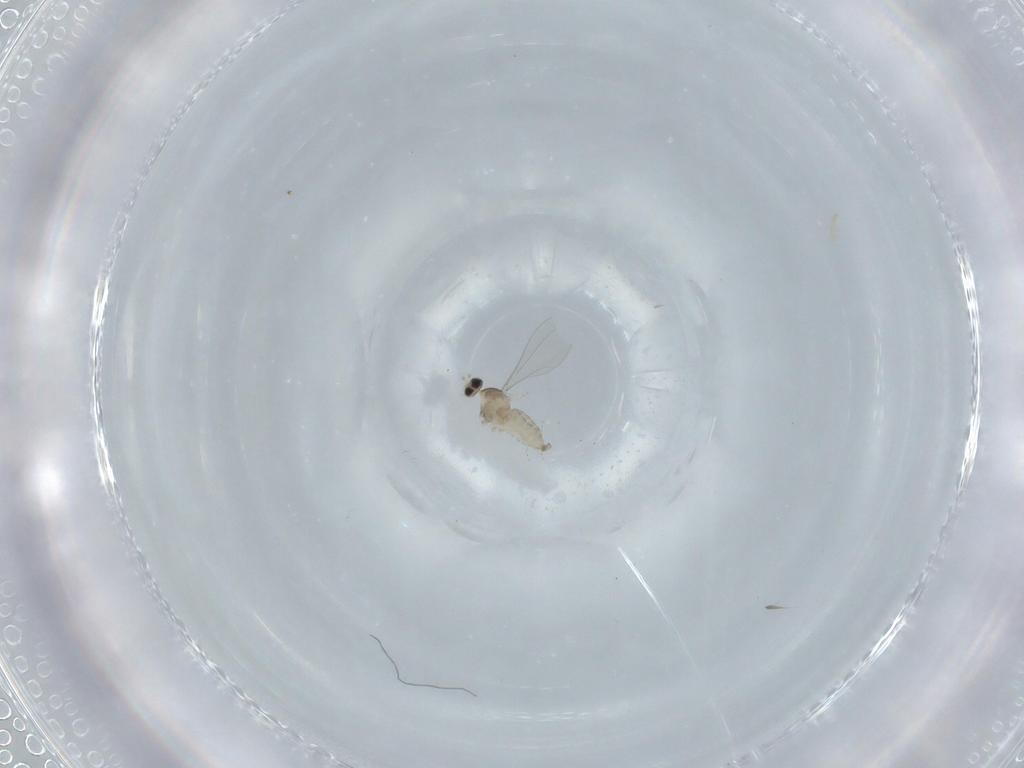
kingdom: Animalia
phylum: Arthropoda
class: Insecta
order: Diptera
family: Cecidomyiidae
